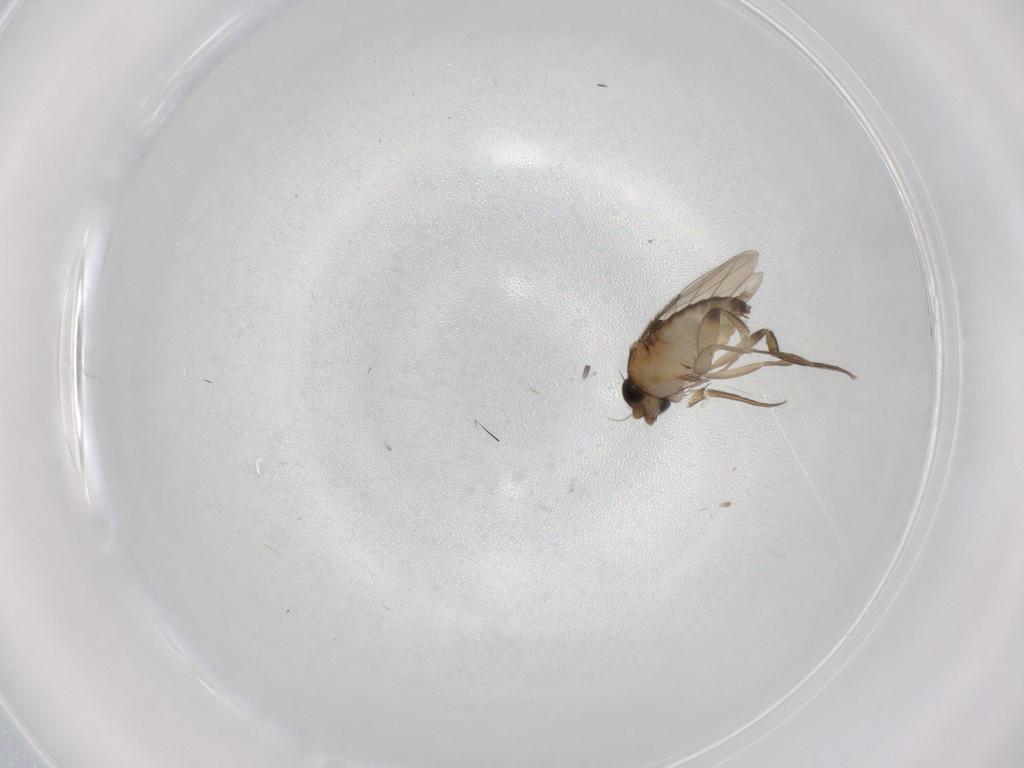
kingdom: Animalia
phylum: Arthropoda
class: Insecta
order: Diptera
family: Phoridae
